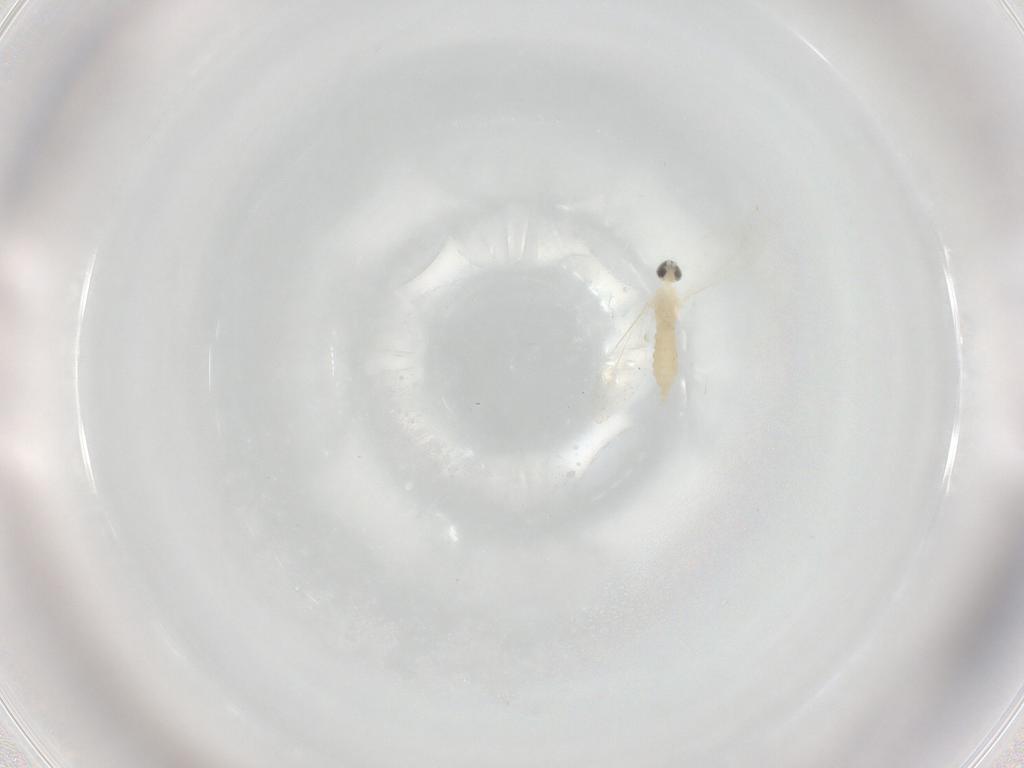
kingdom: Animalia
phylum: Arthropoda
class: Insecta
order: Diptera
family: Cecidomyiidae
